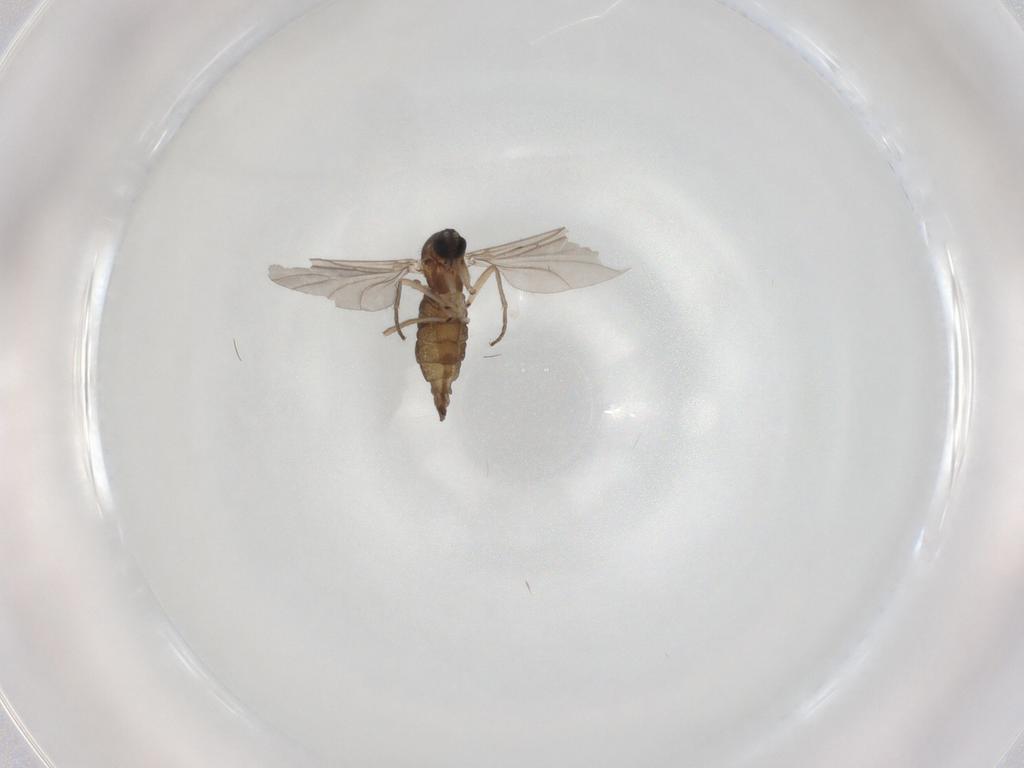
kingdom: Animalia
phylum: Arthropoda
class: Insecta
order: Diptera
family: Sciaridae
